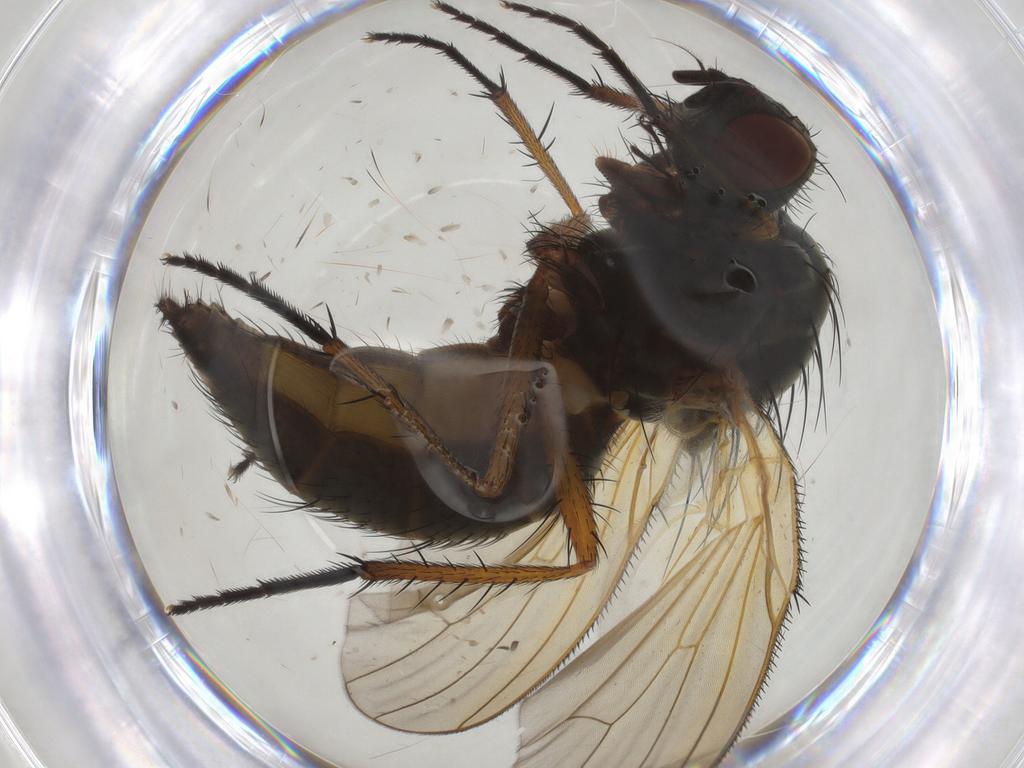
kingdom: Animalia
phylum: Arthropoda
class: Insecta
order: Diptera
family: Anthomyiidae
